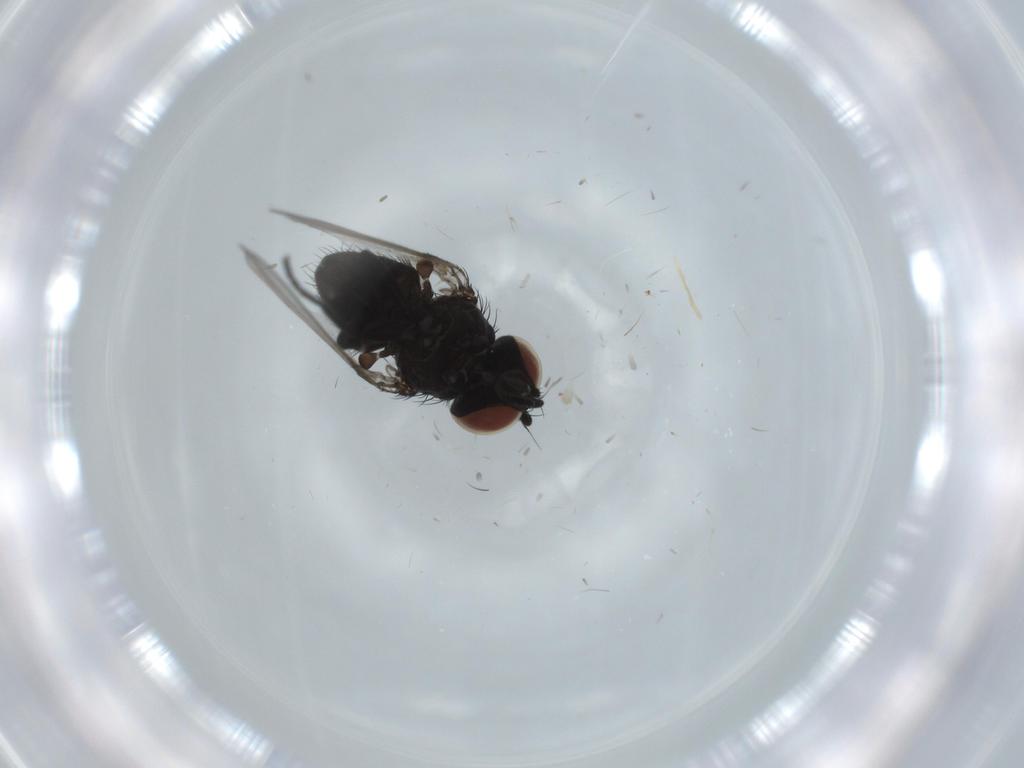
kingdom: Animalia
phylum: Arthropoda
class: Insecta
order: Diptera
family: Milichiidae
